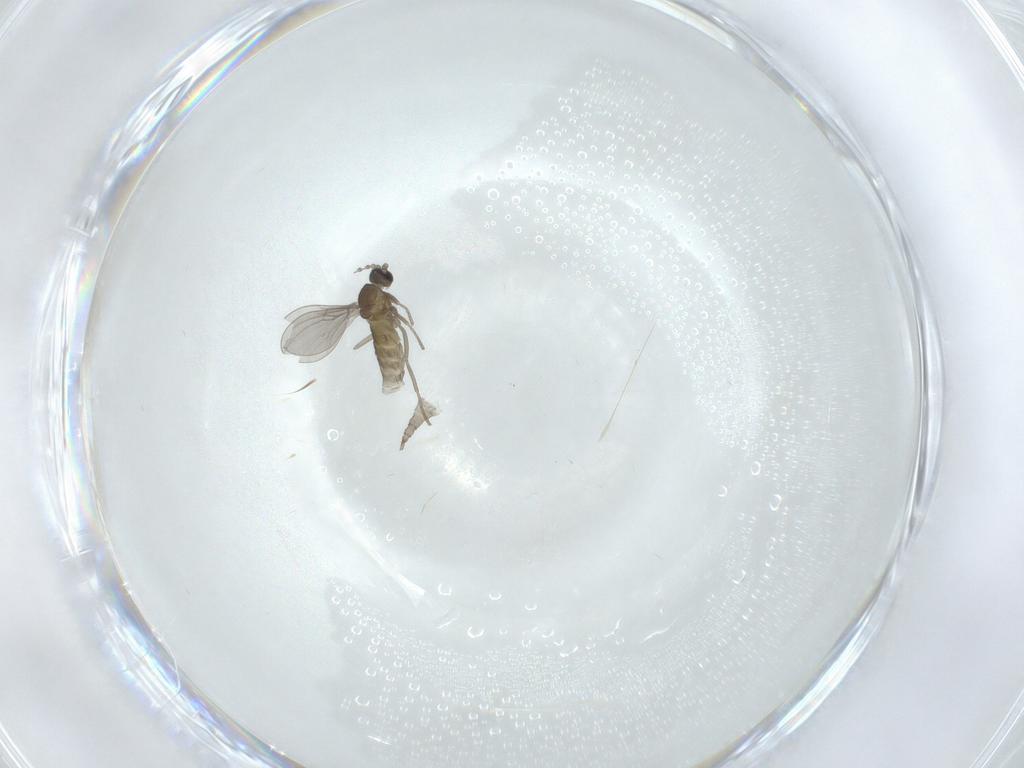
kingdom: Animalia
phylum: Arthropoda
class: Insecta
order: Diptera
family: Cecidomyiidae
